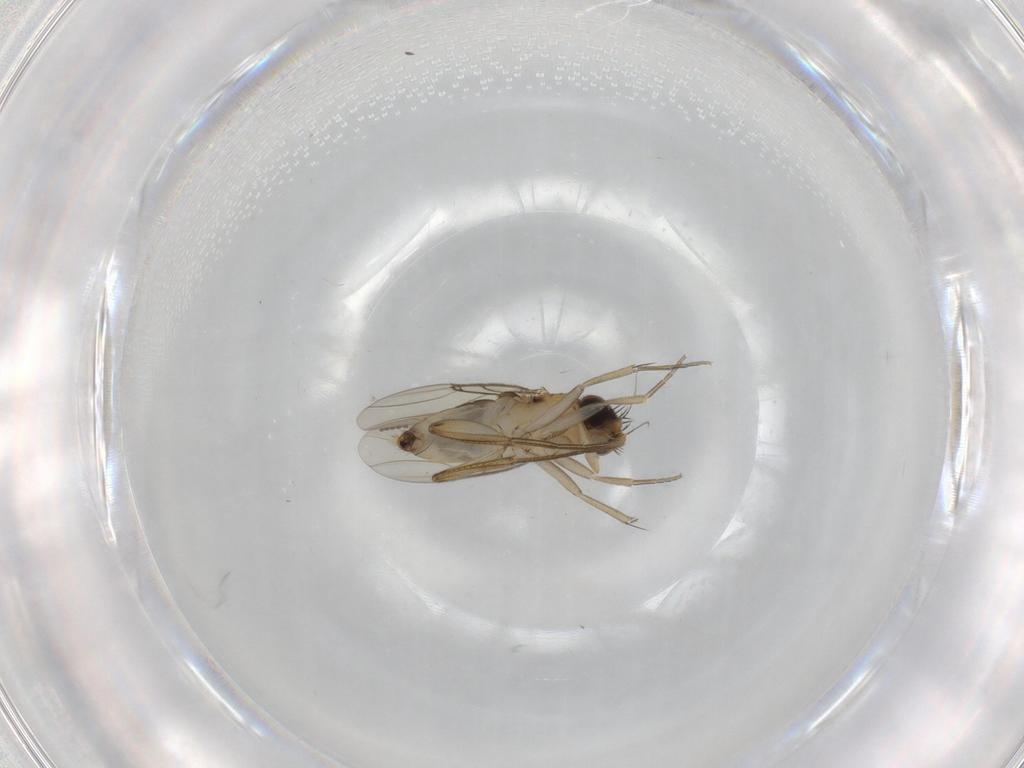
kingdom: Animalia
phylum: Arthropoda
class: Insecta
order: Diptera
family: Phoridae
